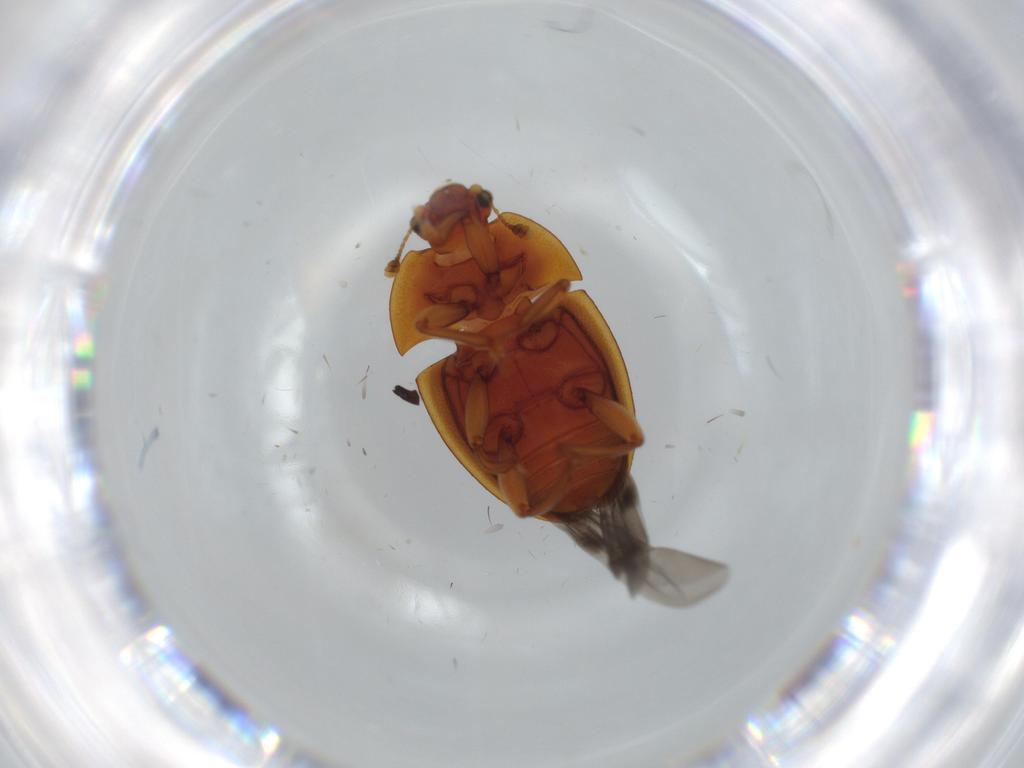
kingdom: Animalia
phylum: Arthropoda
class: Insecta
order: Coleoptera
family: Nitidulidae
